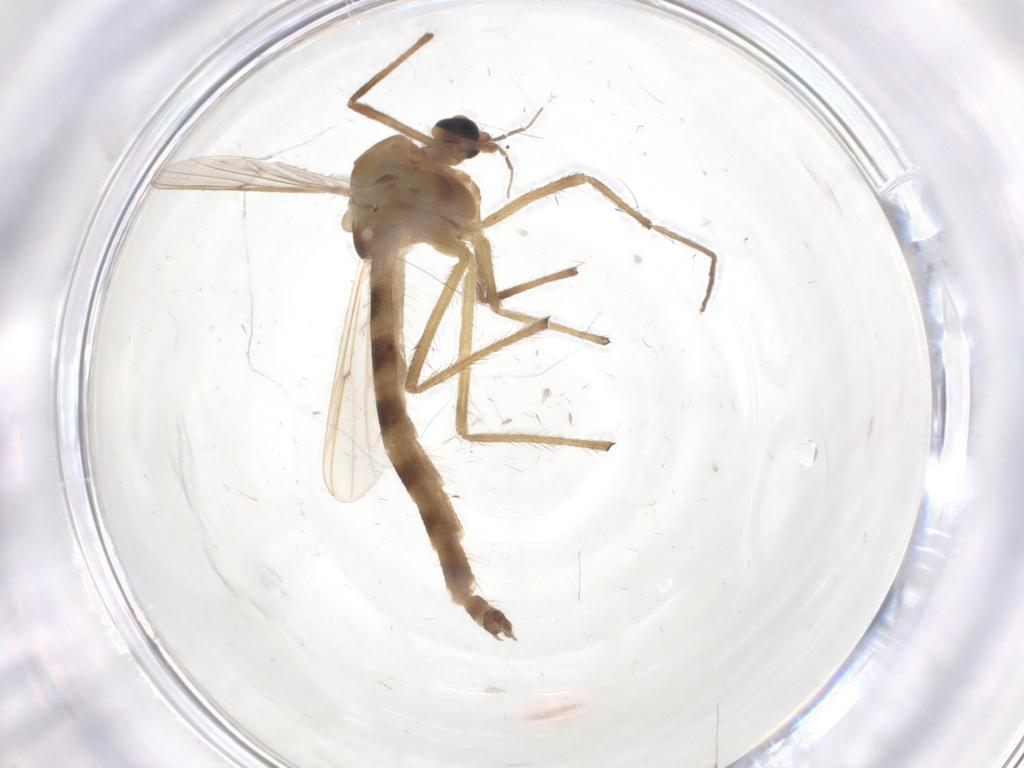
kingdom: Animalia
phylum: Arthropoda
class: Insecta
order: Diptera
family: Chironomidae
